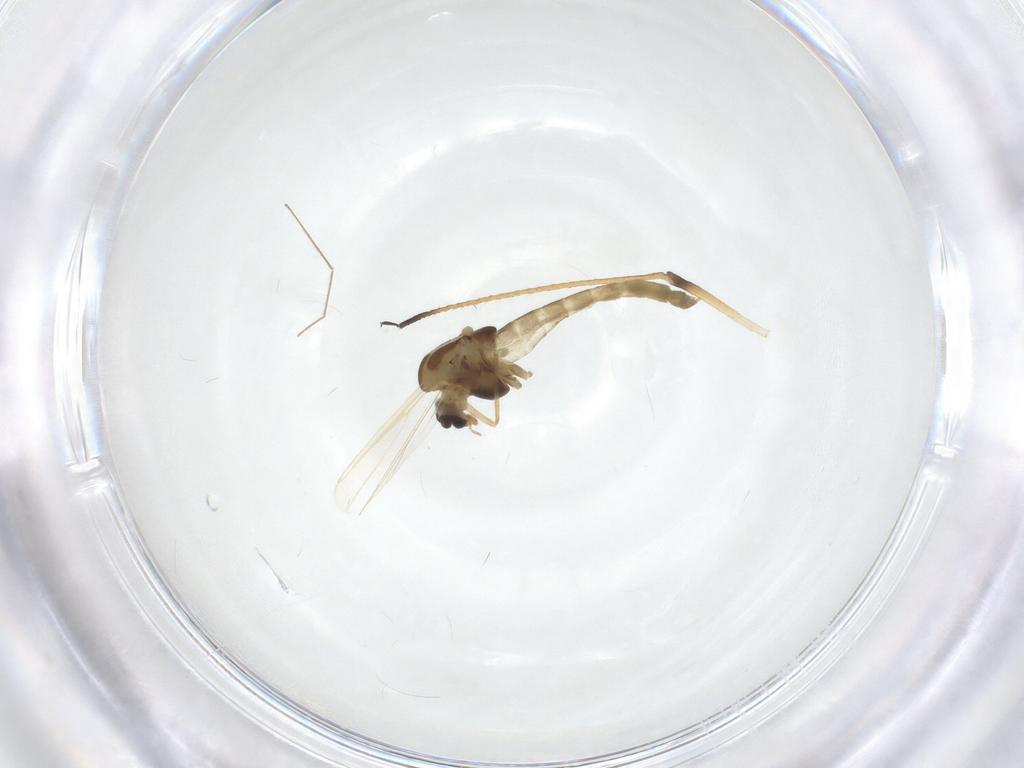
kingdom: Animalia
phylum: Arthropoda
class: Insecta
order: Diptera
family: Chironomidae
